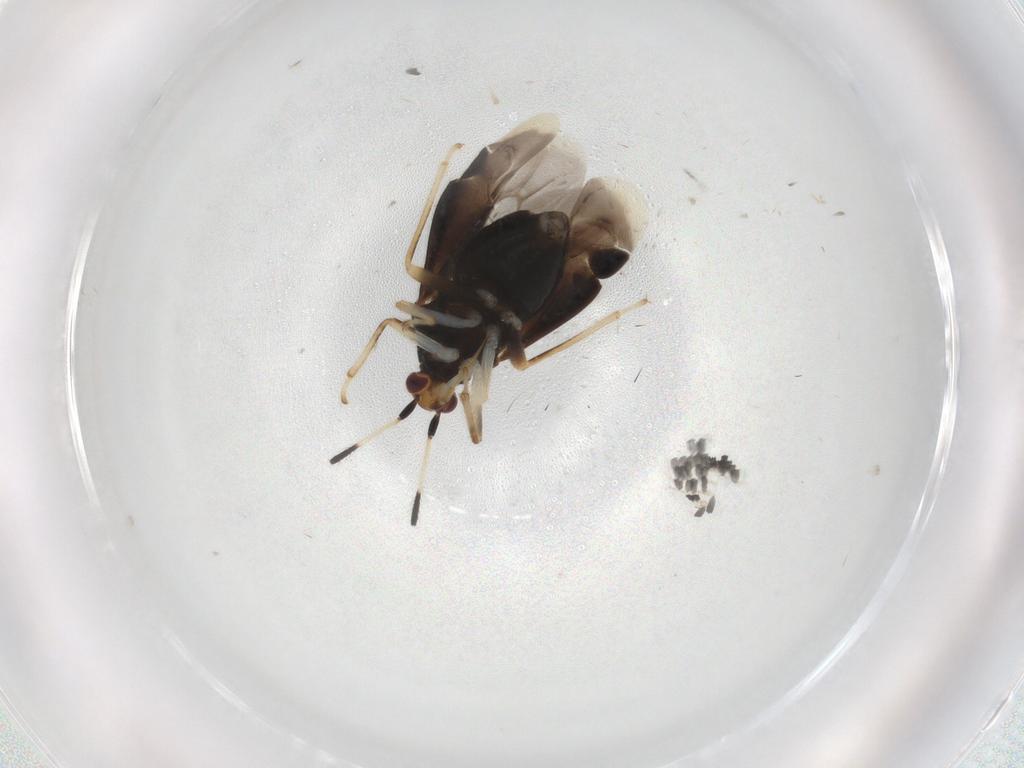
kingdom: Animalia
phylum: Arthropoda
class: Insecta
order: Hemiptera
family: Miridae
